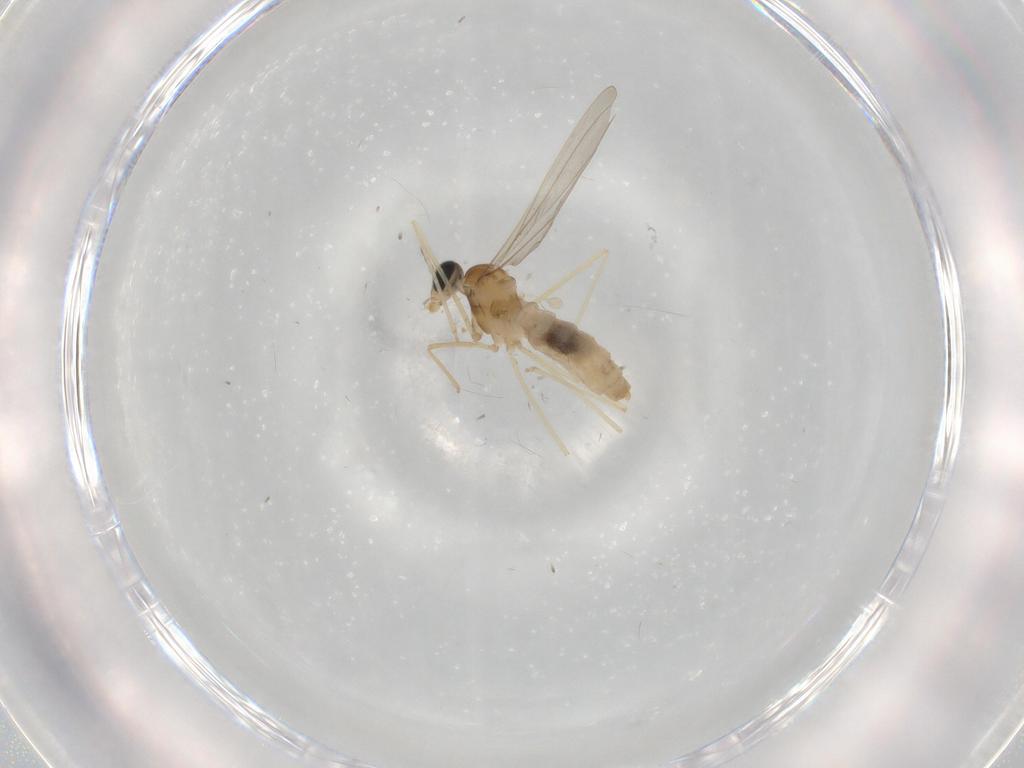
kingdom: Animalia
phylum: Arthropoda
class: Insecta
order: Diptera
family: Cecidomyiidae
